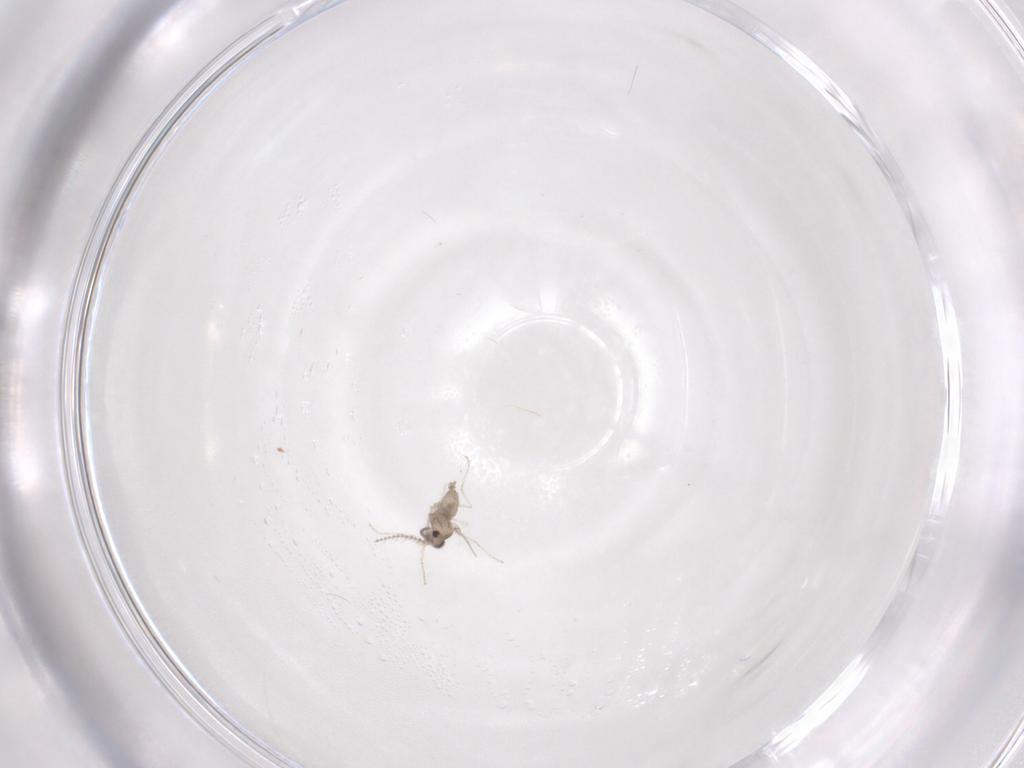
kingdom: Animalia
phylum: Arthropoda
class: Insecta
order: Diptera
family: Cecidomyiidae
